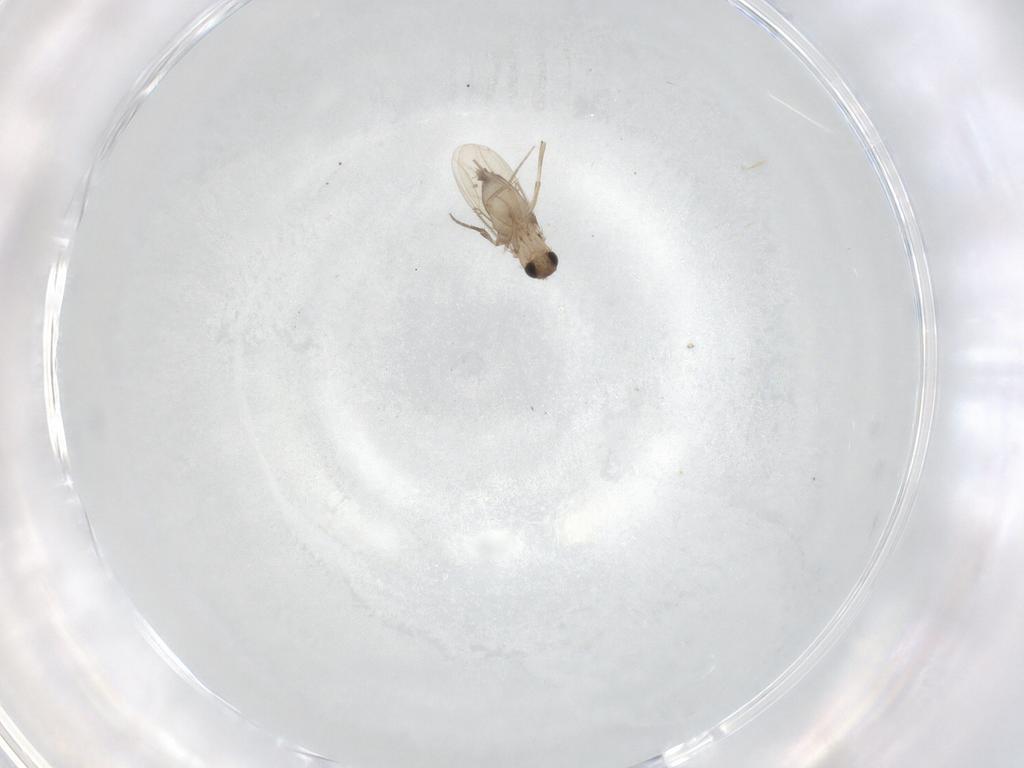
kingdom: Animalia
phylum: Arthropoda
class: Insecta
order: Diptera
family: Phoridae
